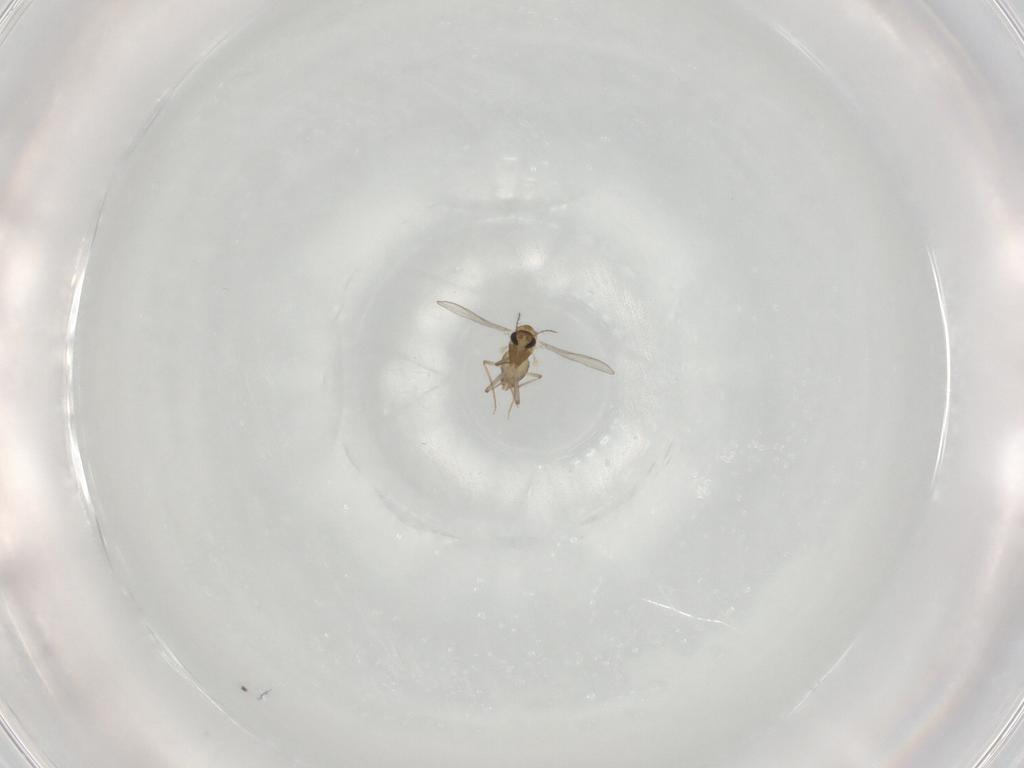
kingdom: Animalia
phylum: Arthropoda
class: Insecta
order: Diptera
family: Chironomidae
